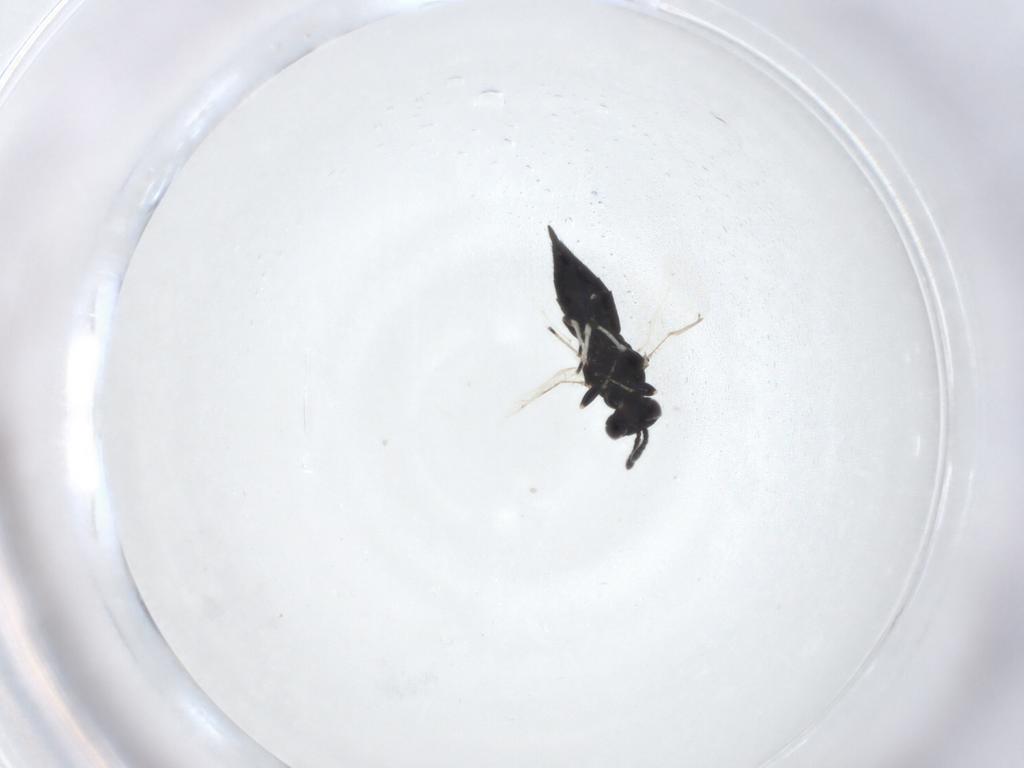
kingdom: Animalia
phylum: Arthropoda
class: Insecta
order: Hymenoptera
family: Eulophidae
